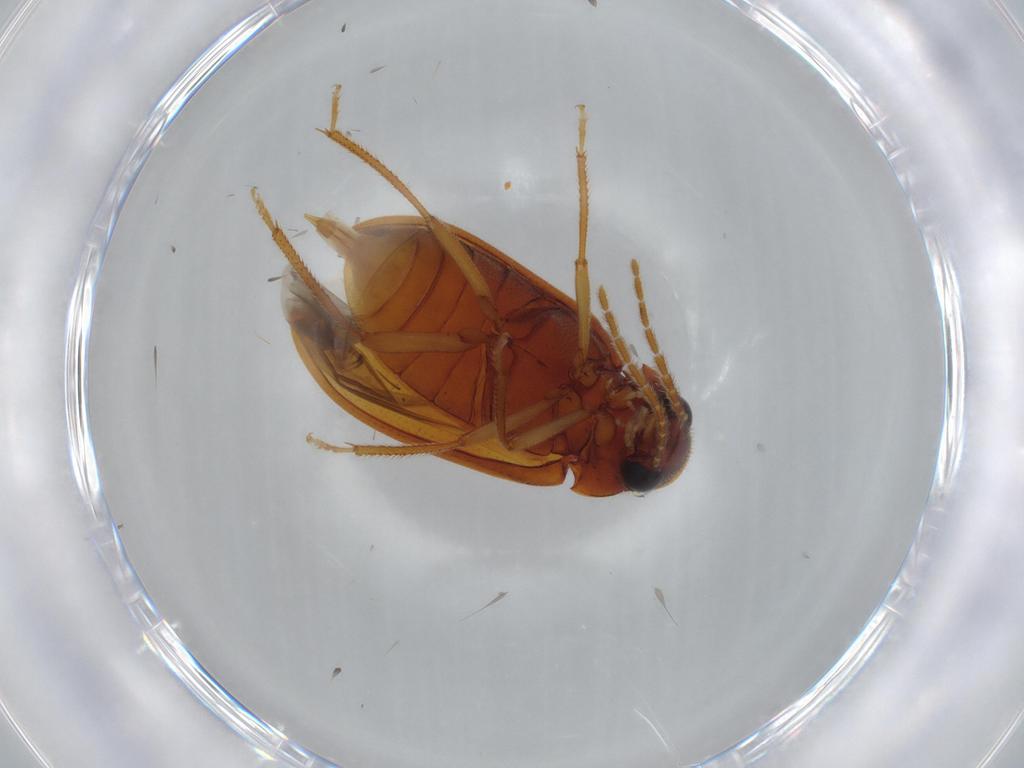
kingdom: Animalia
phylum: Arthropoda
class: Insecta
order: Coleoptera
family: Ptilodactylidae
